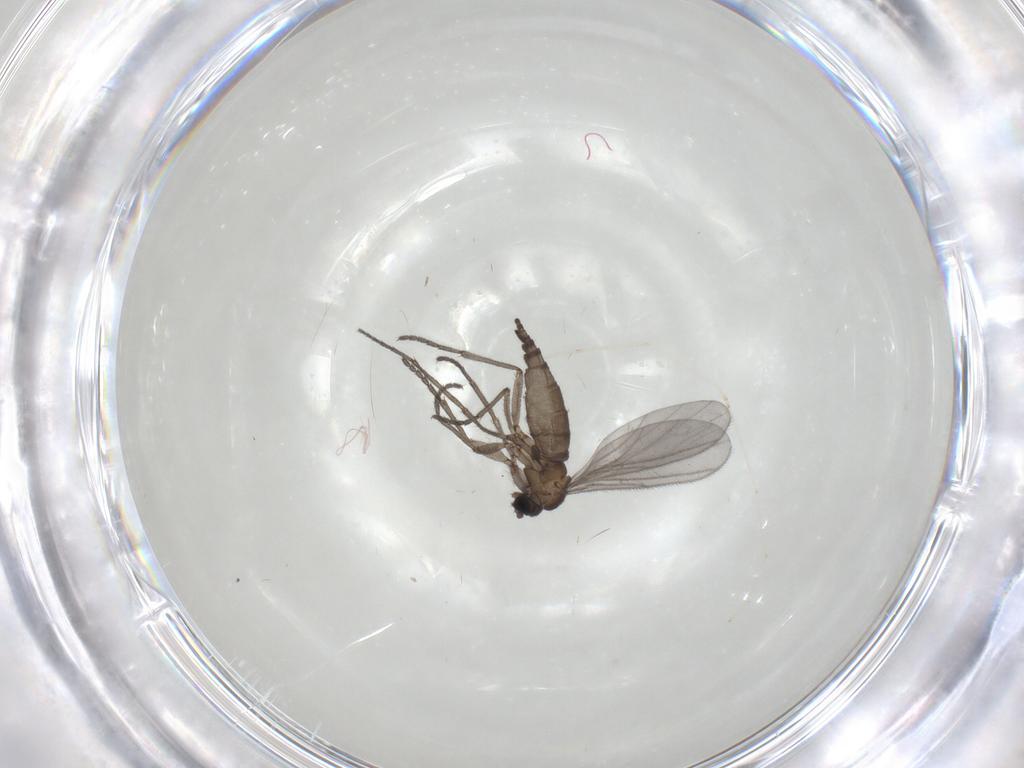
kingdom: Animalia
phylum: Arthropoda
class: Insecta
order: Diptera
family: Sciaridae
